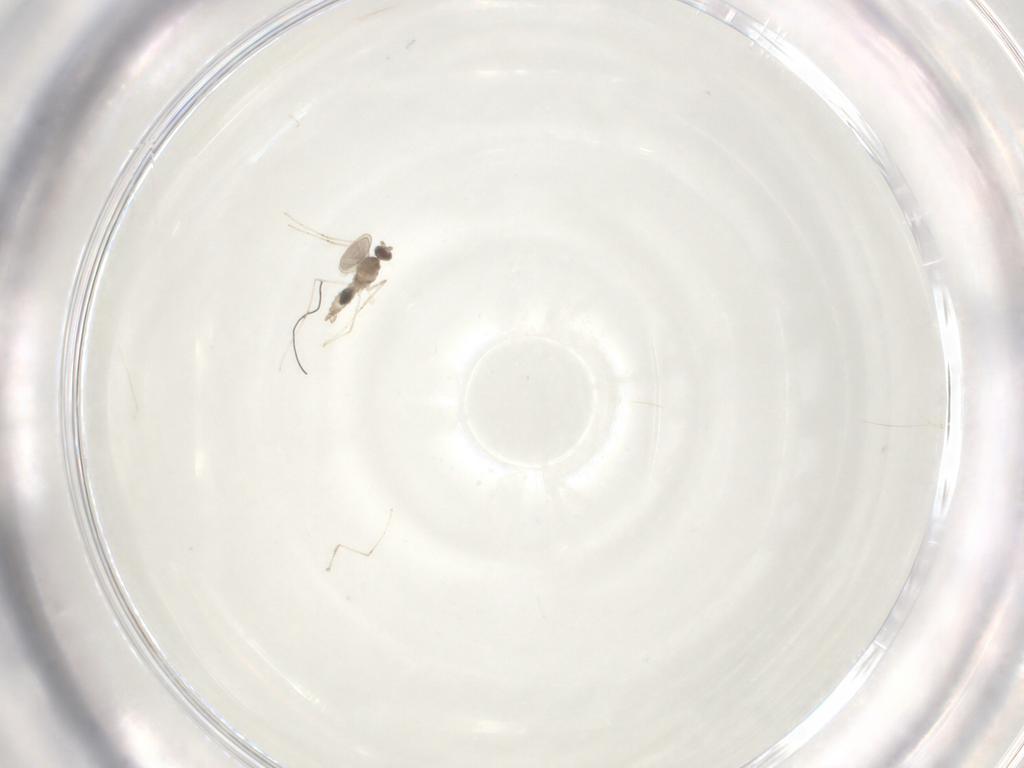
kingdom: Animalia
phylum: Arthropoda
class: Insecta
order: Diptera
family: Cecidomyiidae
